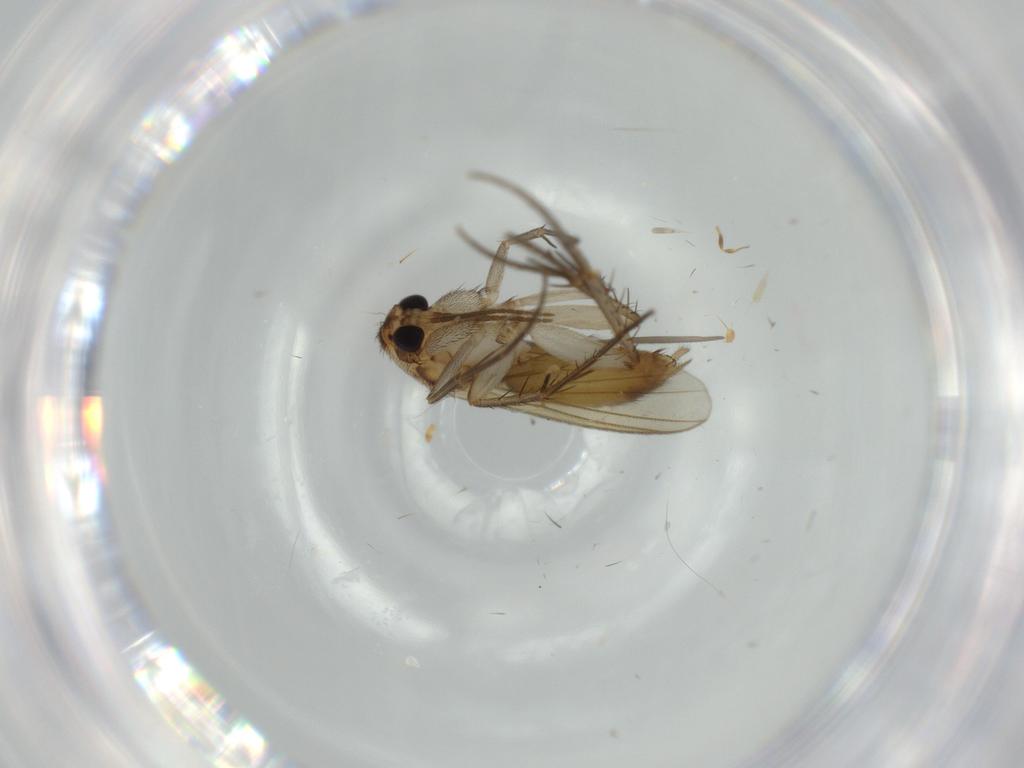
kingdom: Animalia
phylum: Arthropoda
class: Insecta
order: Diptera
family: Mycetophilidae
